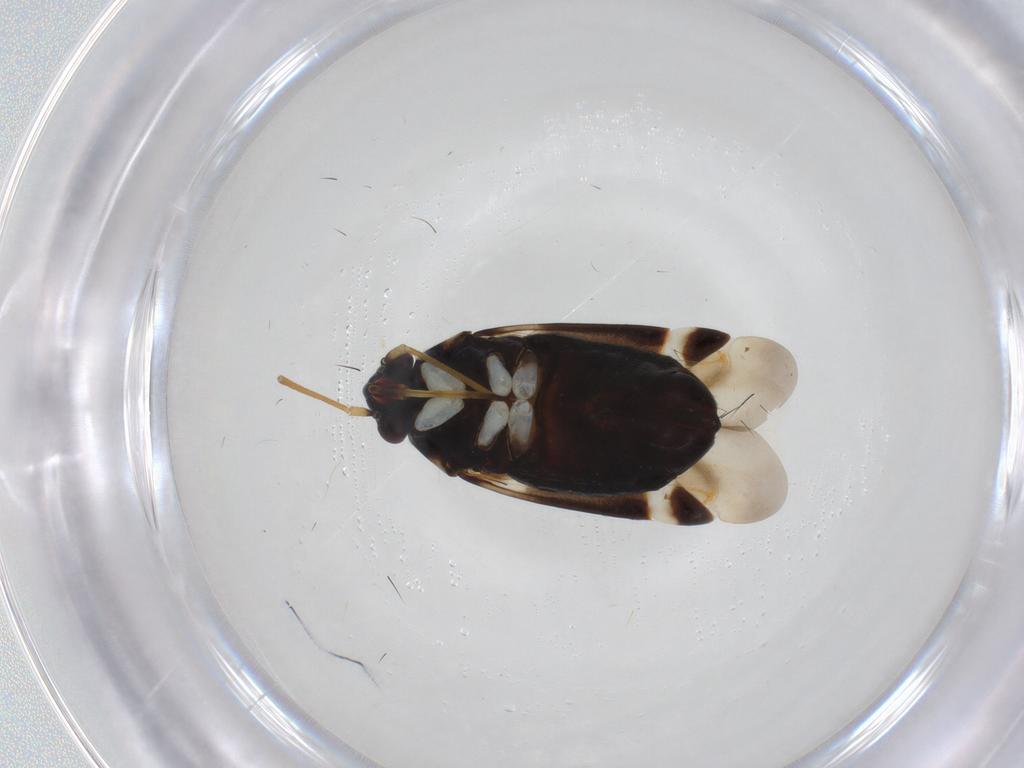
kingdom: Animalia
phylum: Arthropoda
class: Insecta
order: Hemiptera
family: Miridae
